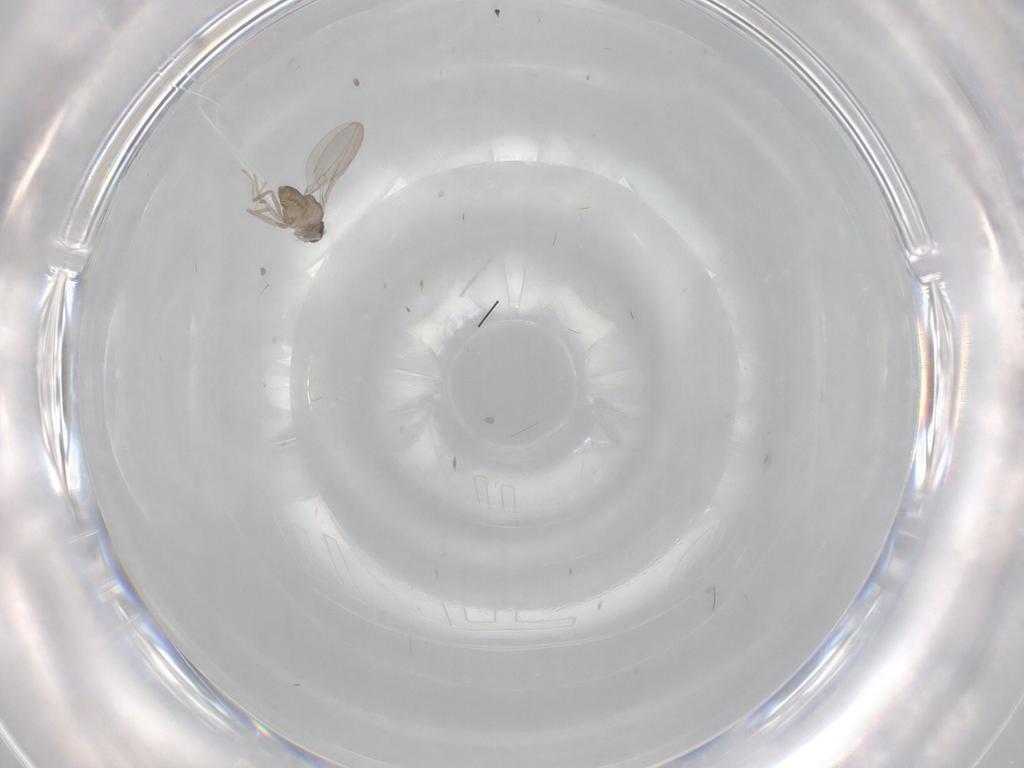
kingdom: Animalia
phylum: Arthropoda
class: Insecta
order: Diptera
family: Cecidomyiidae
